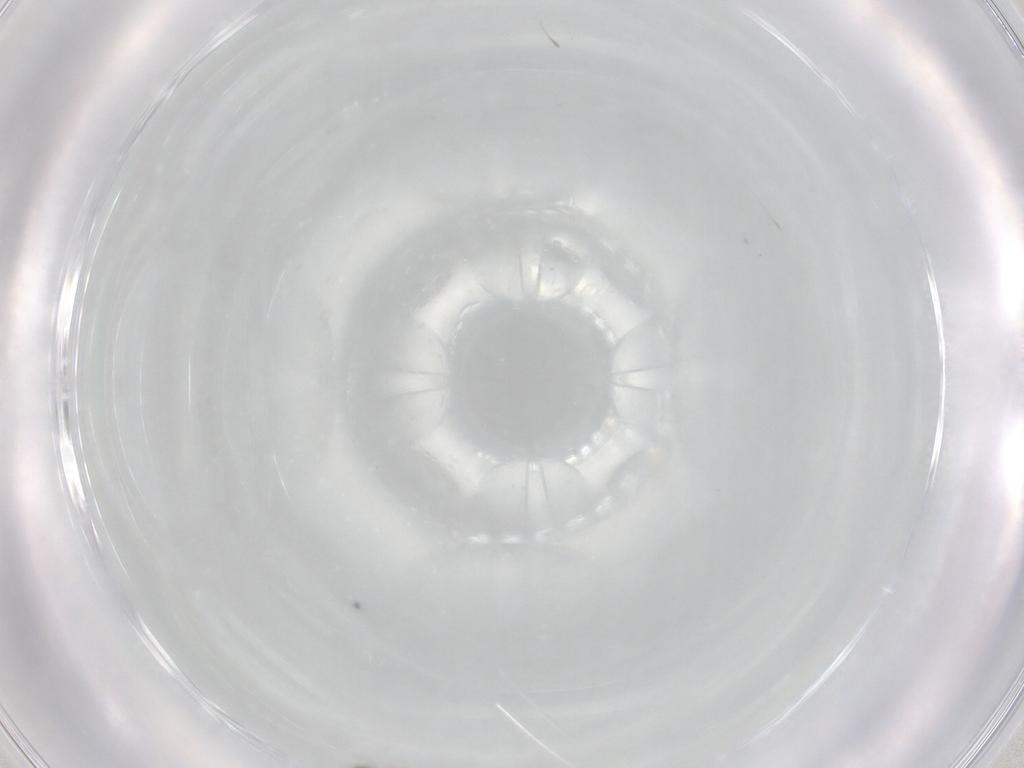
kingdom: Animalia
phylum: Arthropoda
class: Insecta
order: Diptera
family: Cecidomyiidae
